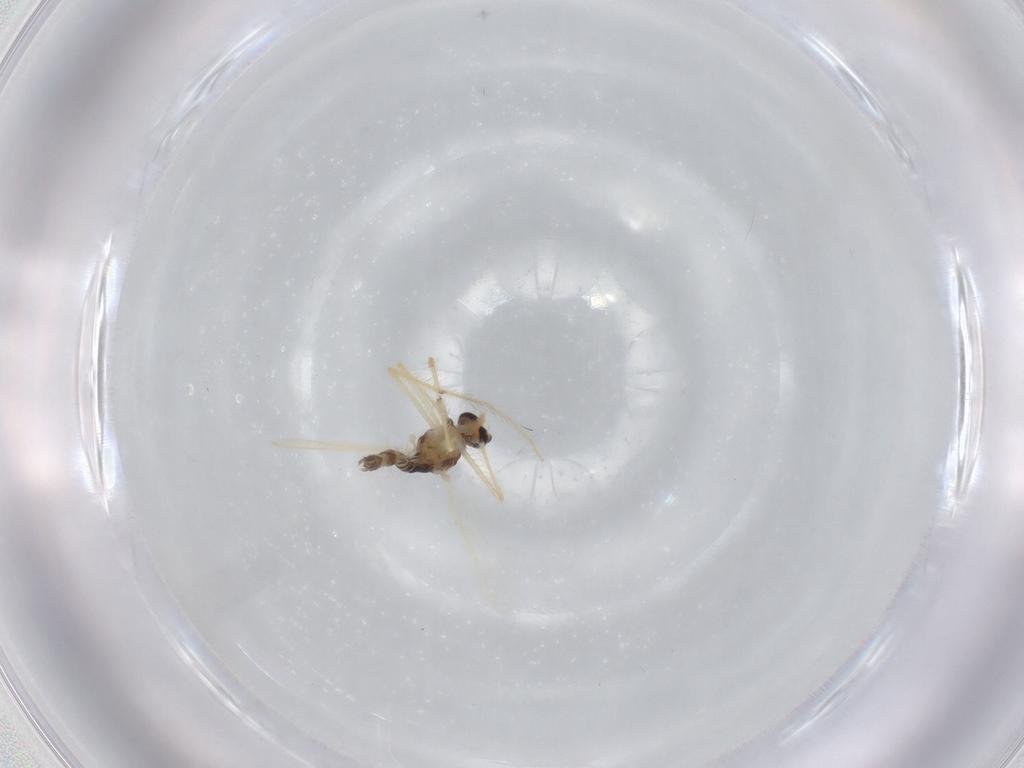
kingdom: Animalia
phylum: Arthropoda
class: Insecta
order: Diptera
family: Chironomidae
